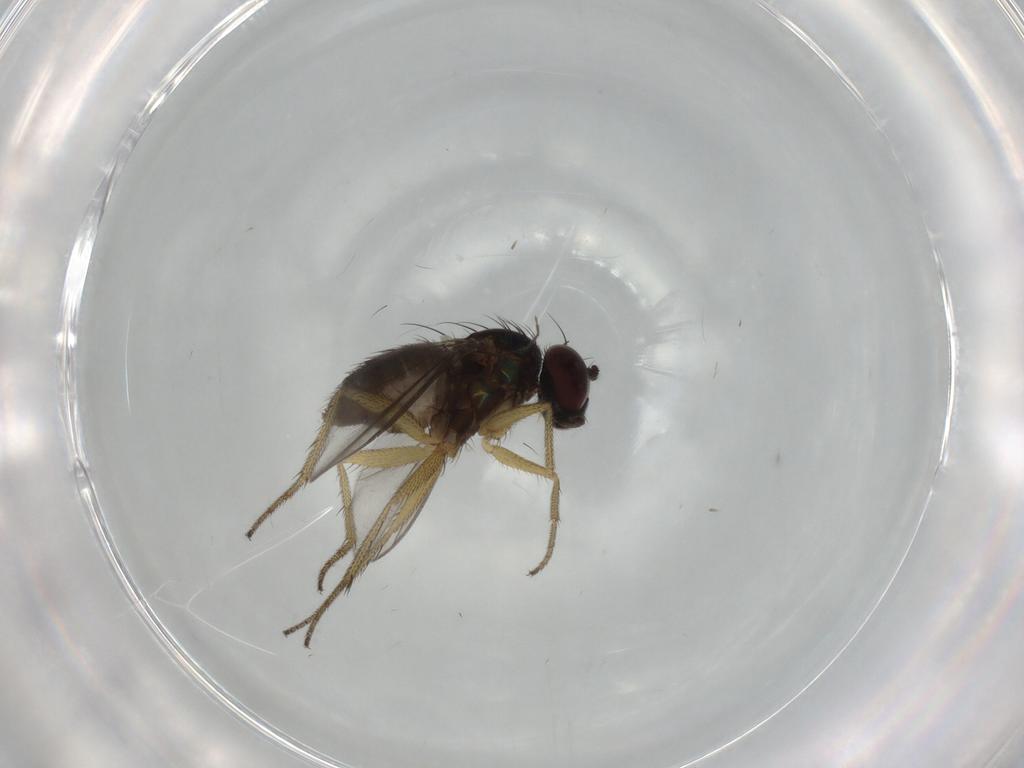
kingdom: Animalia
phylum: Arthropoda
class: Insecta
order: Diptera
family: Dolichopodidae
